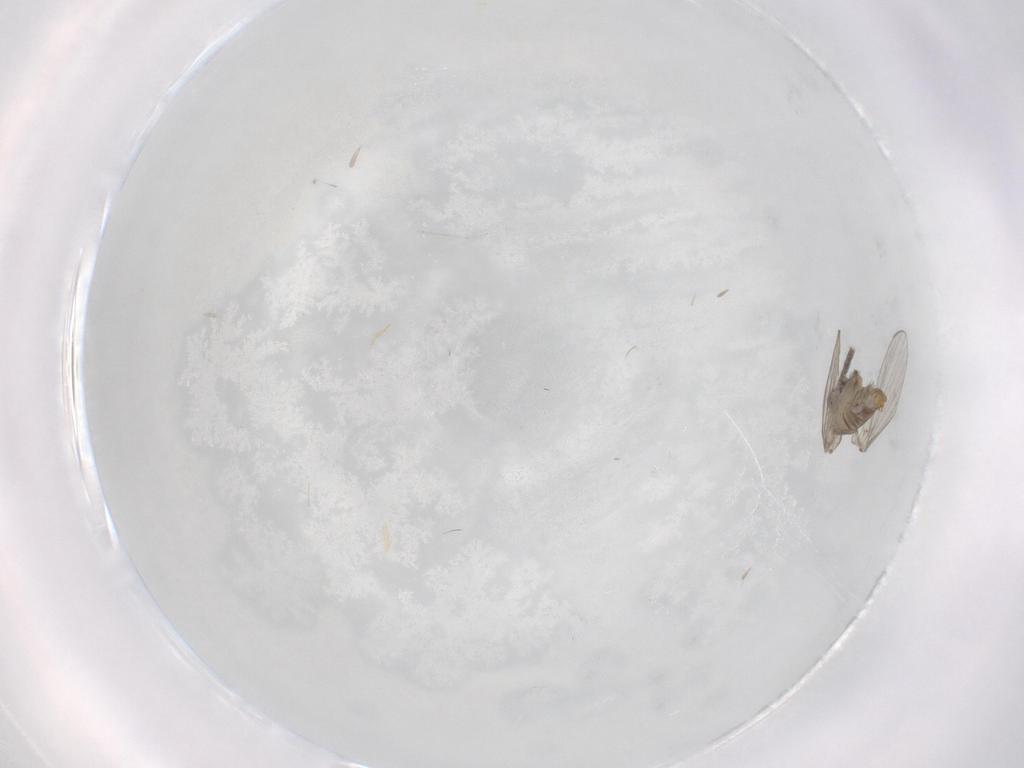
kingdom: Animalia
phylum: Arthropoda
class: Insecta
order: Diptera
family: Psychodidae
